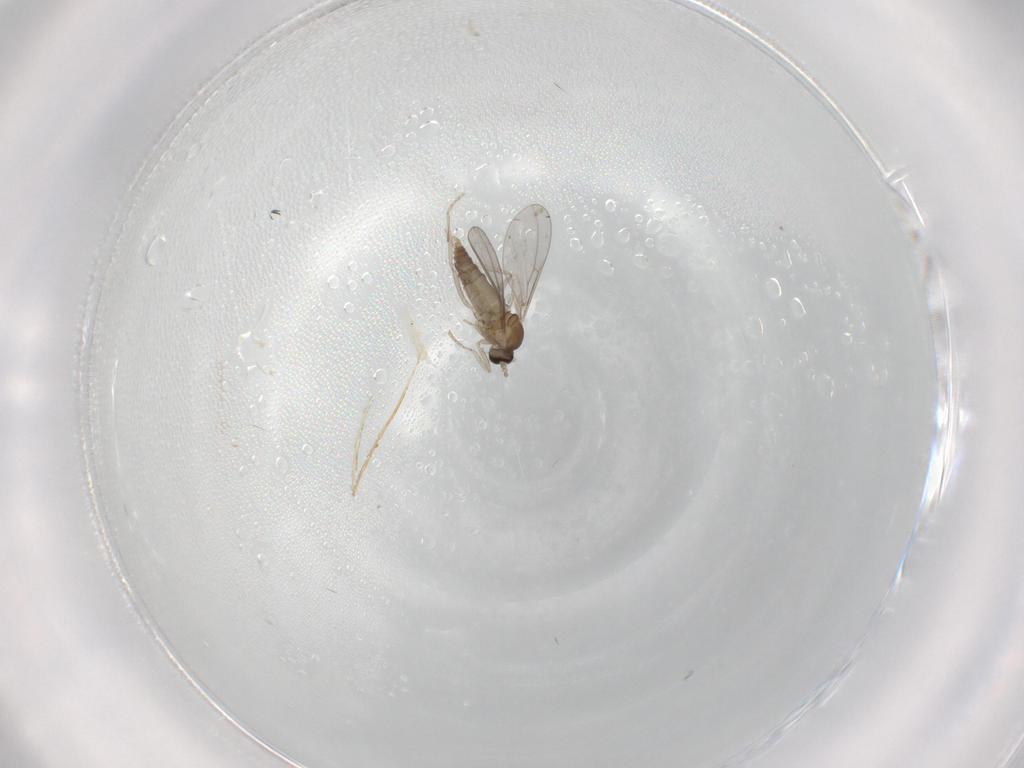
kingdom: Animalia
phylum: Arthropoda
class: Insecta
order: Diptera
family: Cecidomyiidae
